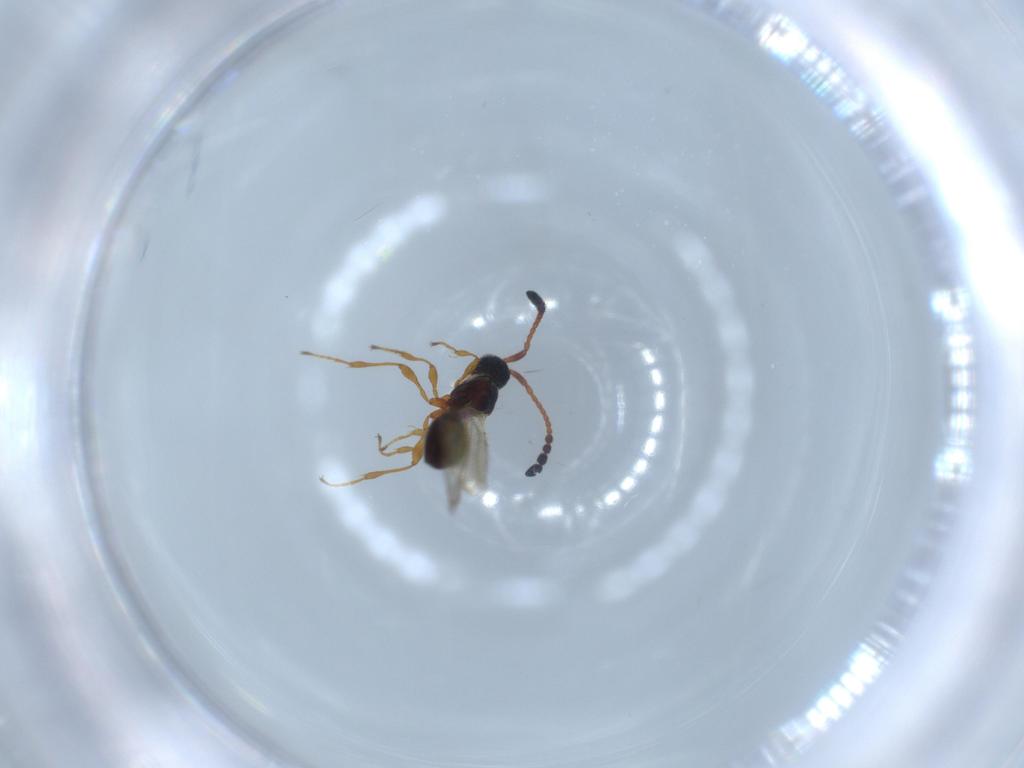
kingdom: Animalia
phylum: Arthropoda
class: Insecta
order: Hymenoptera
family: Diapriidae
